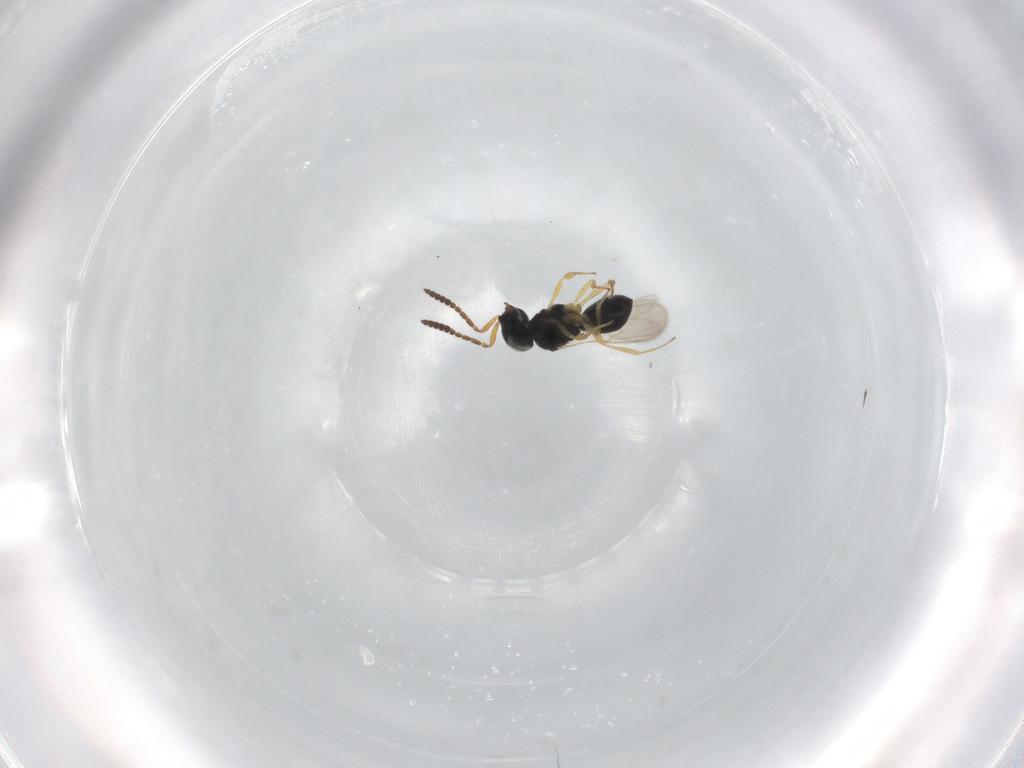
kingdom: Animalia
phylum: Arthropoda
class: Insecta
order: Hymenoptera
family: Scelionidae
